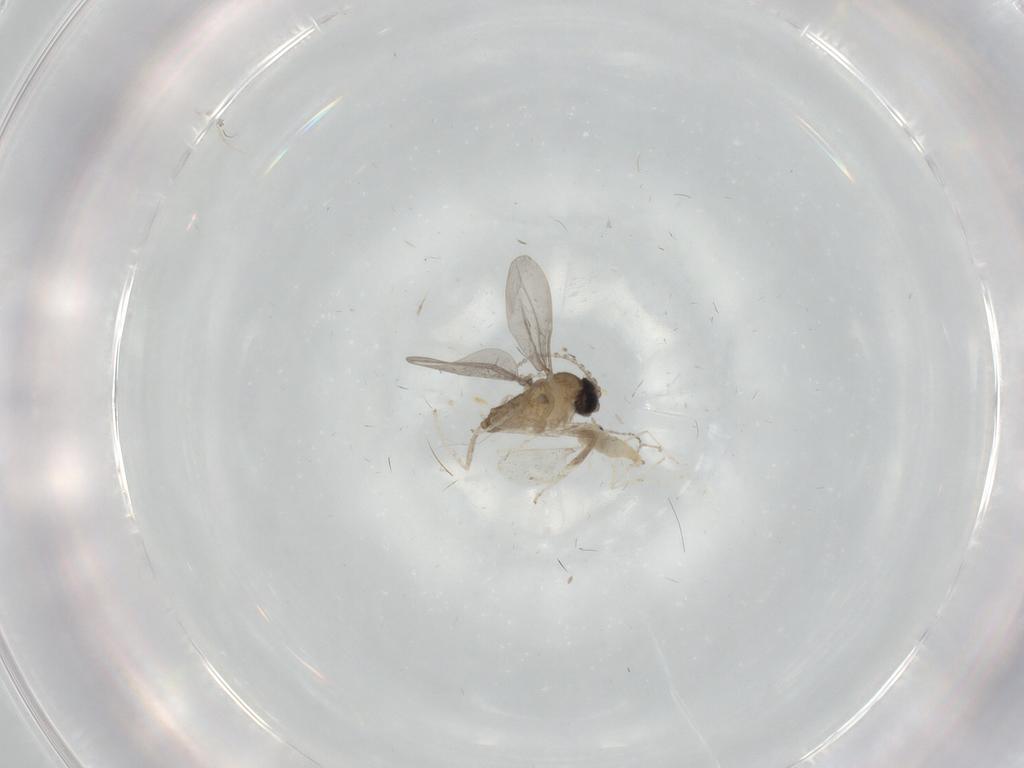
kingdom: Animalia
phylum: Arthropoda
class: Insecta
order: Diptera
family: Cecidomyiidae
